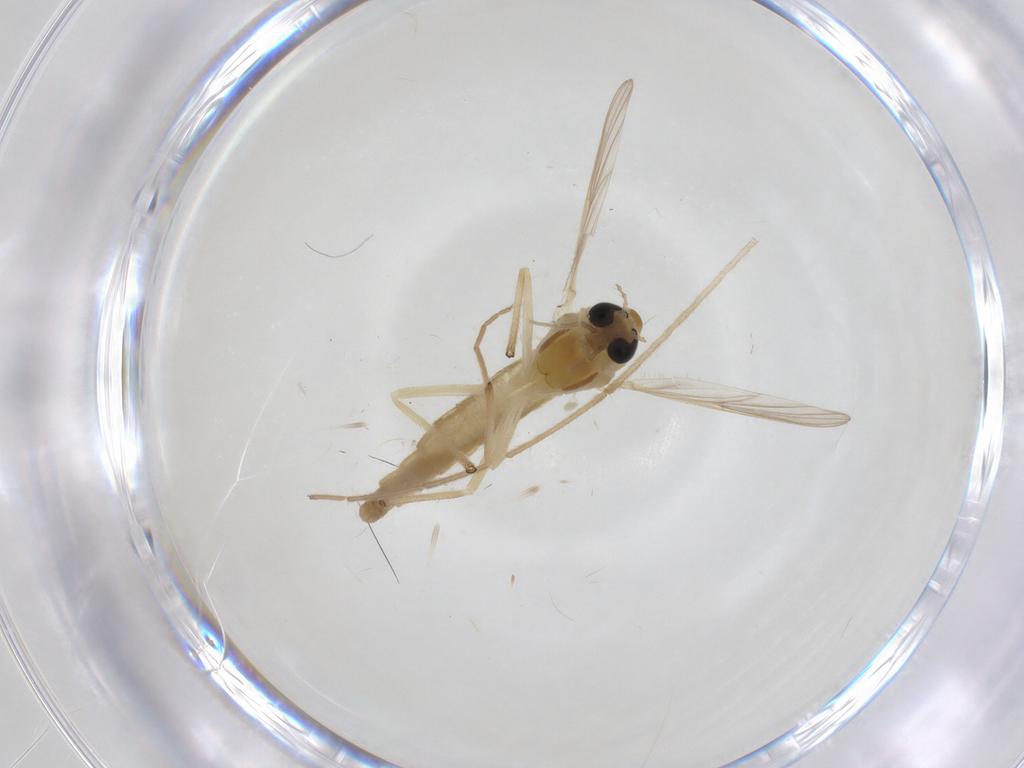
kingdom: Animalia
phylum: Arthropoda
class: Insecta
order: Diptera
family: Chironomidae
